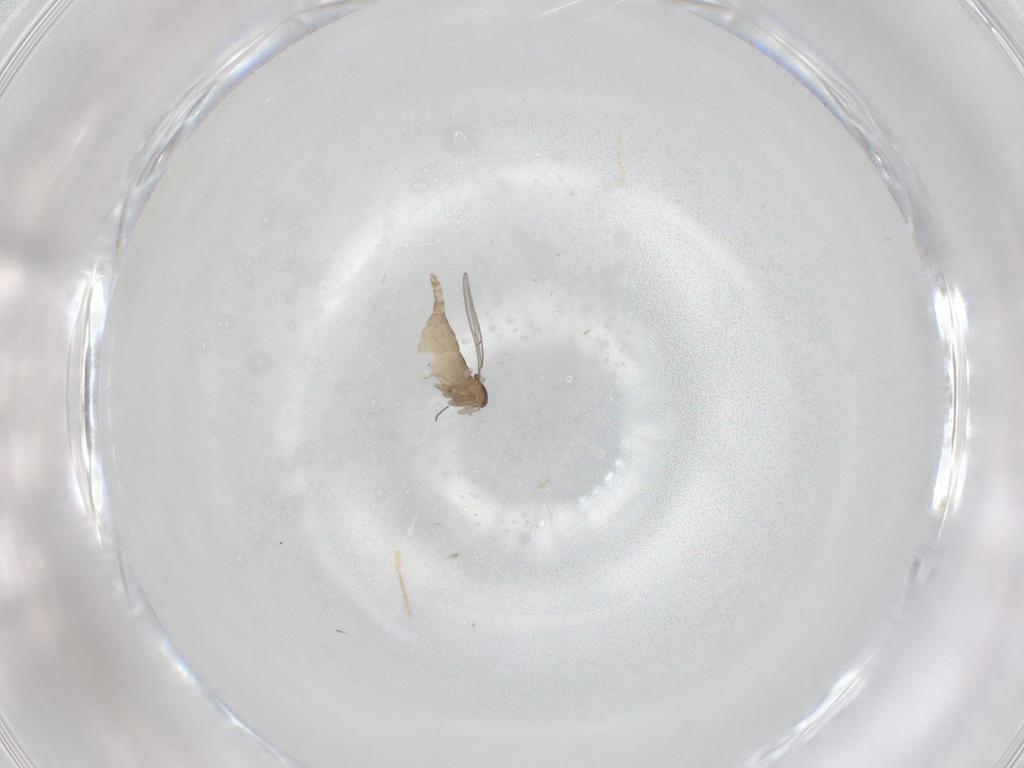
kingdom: Animalia
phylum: Arthropoda
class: Insecta
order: Diptera
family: Cecidomyiidae
